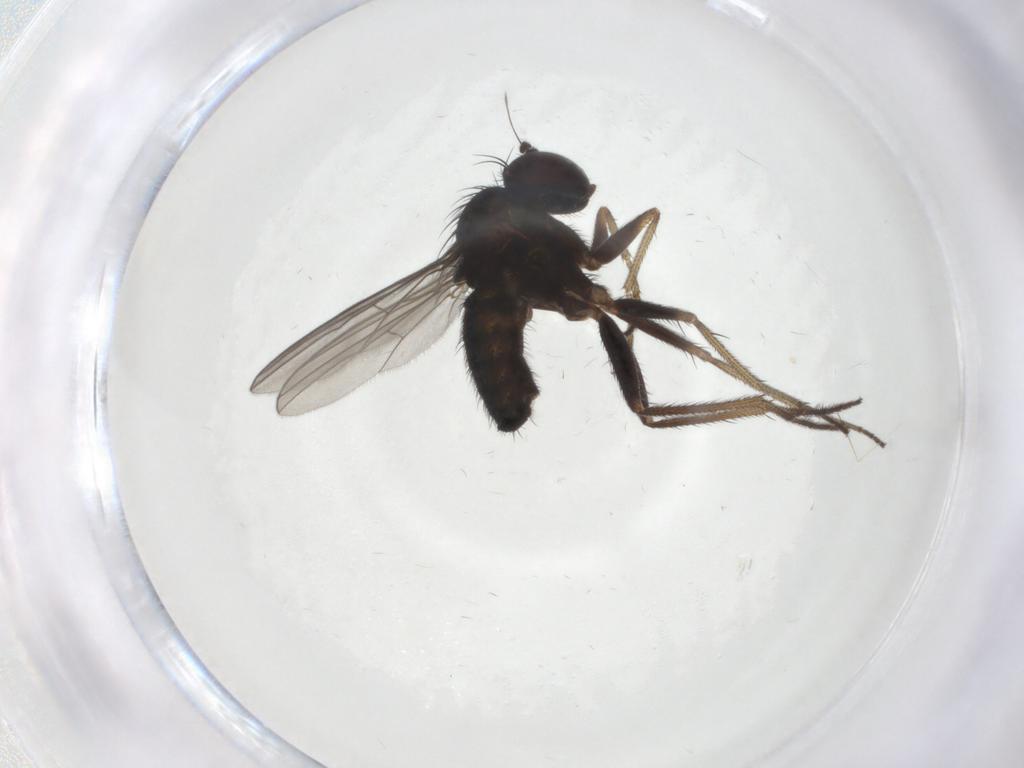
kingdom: Animalia
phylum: Arthropoda
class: Insecta
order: Diptera
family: Dolichopodidae
